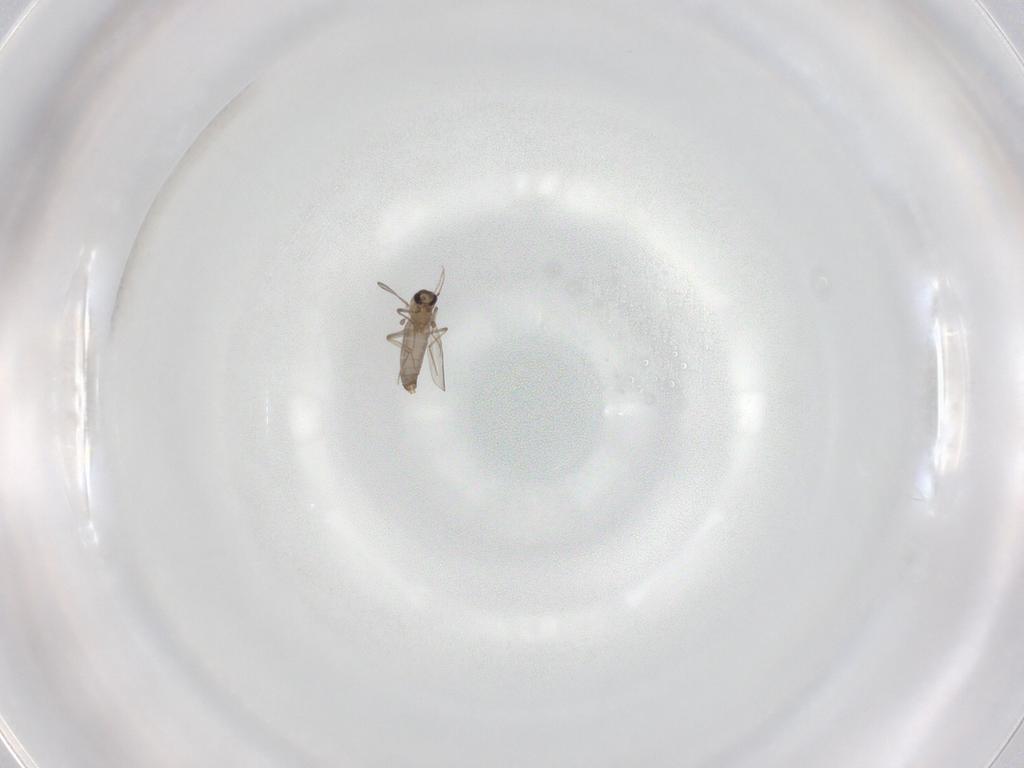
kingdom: Animalia
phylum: Arthropoda
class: Insecta
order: Diptera
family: Chironomidae
